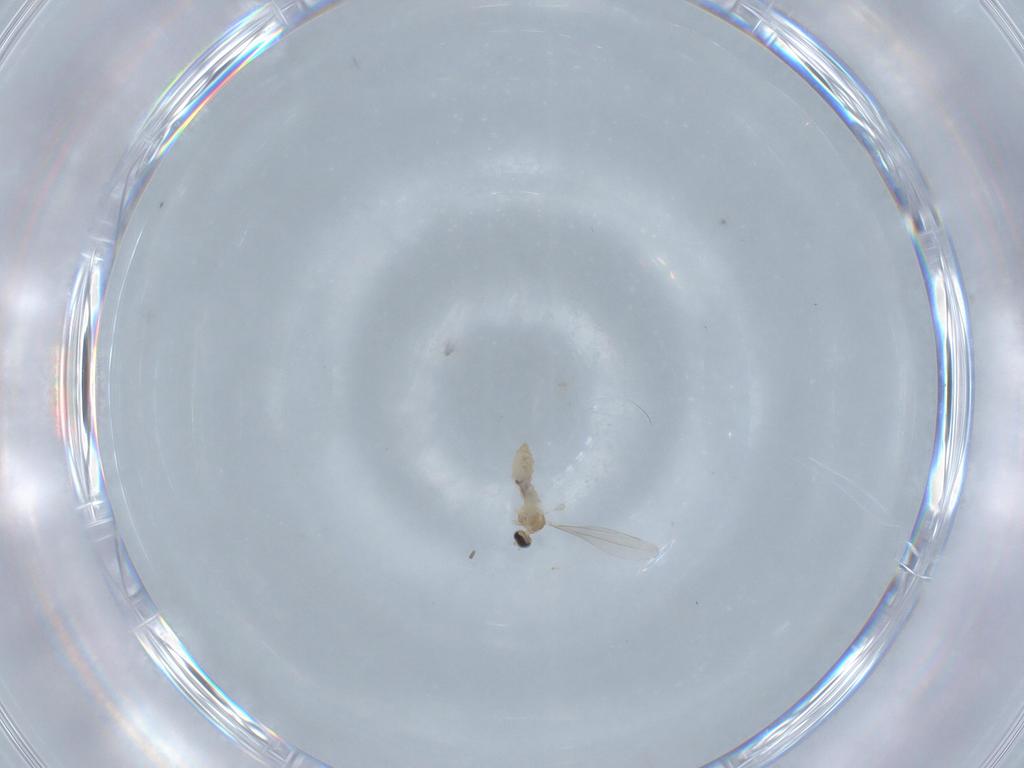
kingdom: Animalia
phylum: Arthropoda
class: Insecta
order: Diptera
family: Cecidomyiidae
